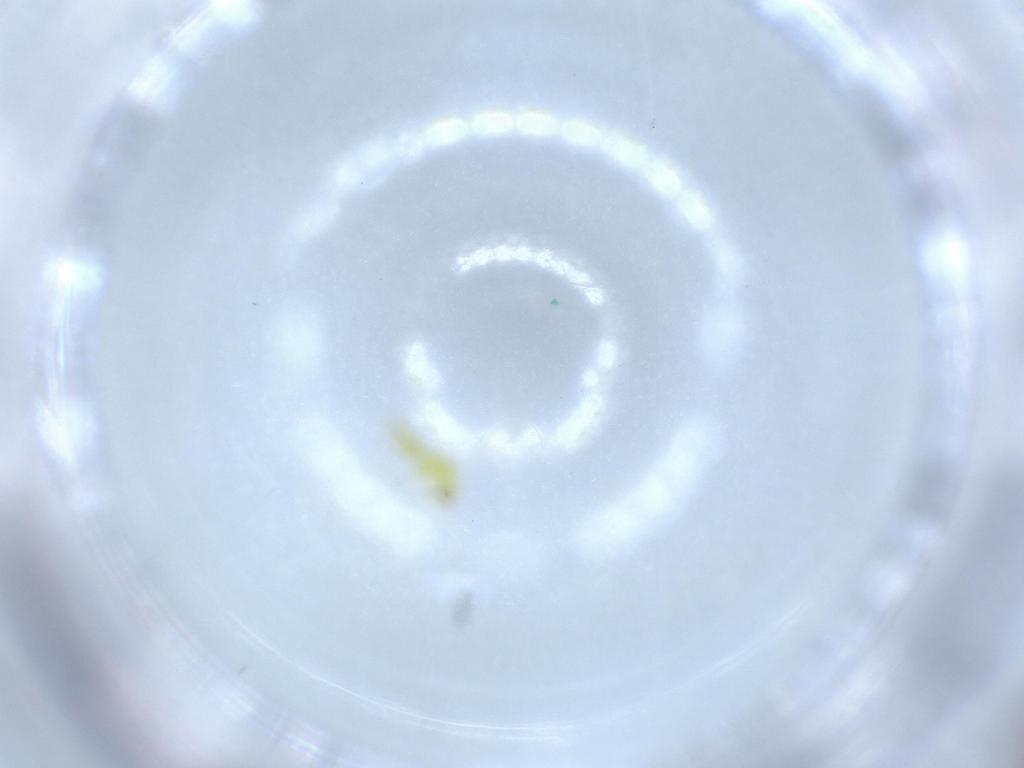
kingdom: Animalia
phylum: Arthropoda
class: Insecta
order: Hemiptera
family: Aleyrodidae
